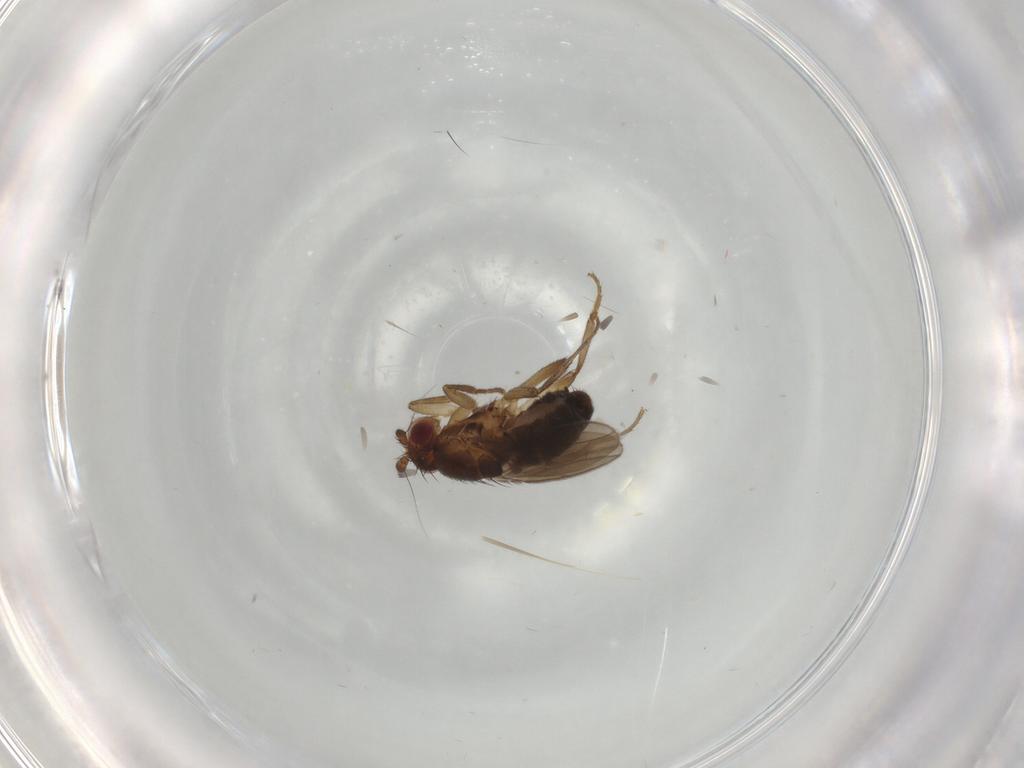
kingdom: Animalia
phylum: Arthropoda
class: Insecta
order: Diptera
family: Sphaeroceridae
